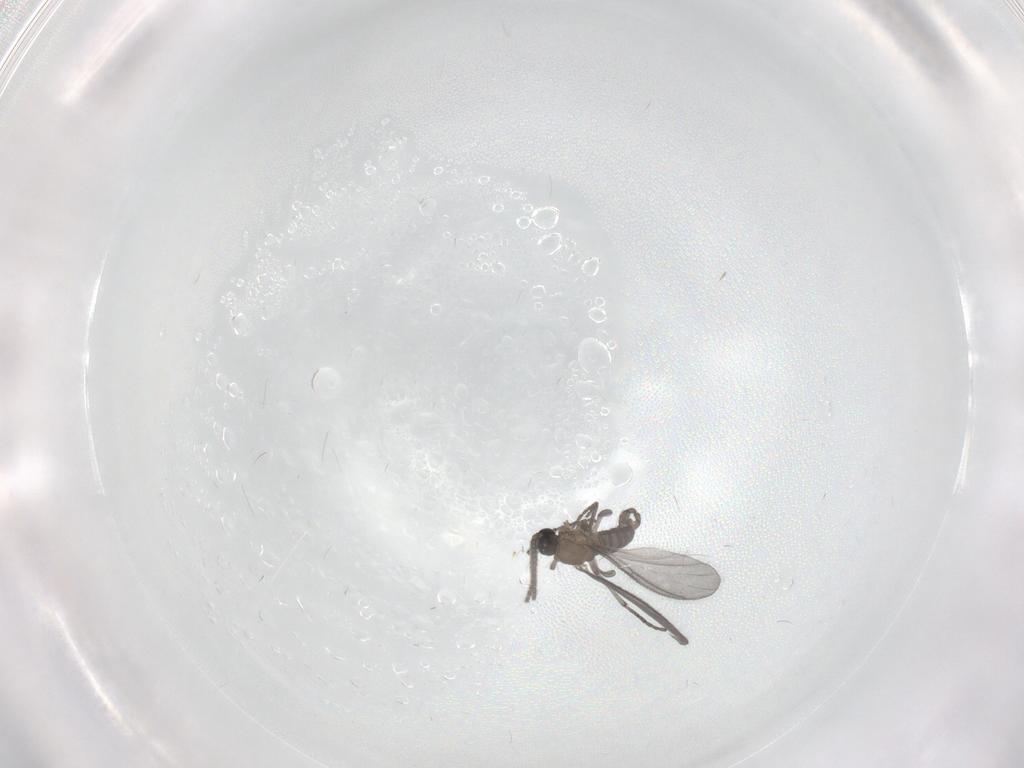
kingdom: Animalia
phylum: Arthropoda
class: Insecta
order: Diptera
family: Sciaridae
